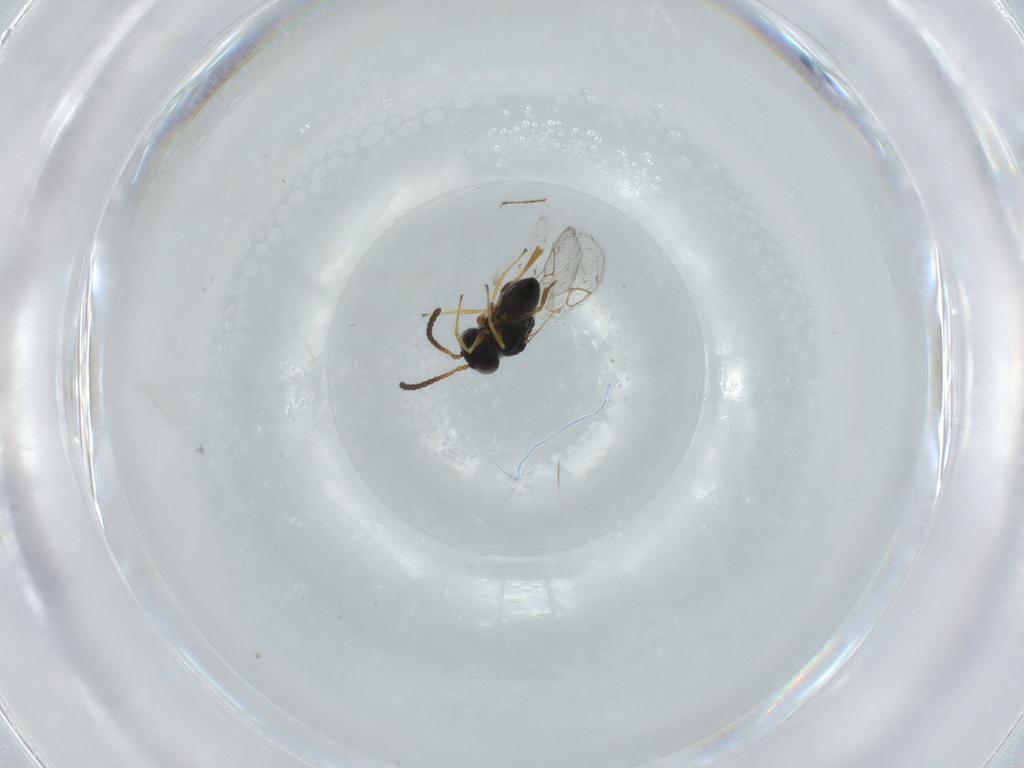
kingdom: Animalia
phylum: Arthropoda
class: Insecta
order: Hymenoptera
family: Figitidae
